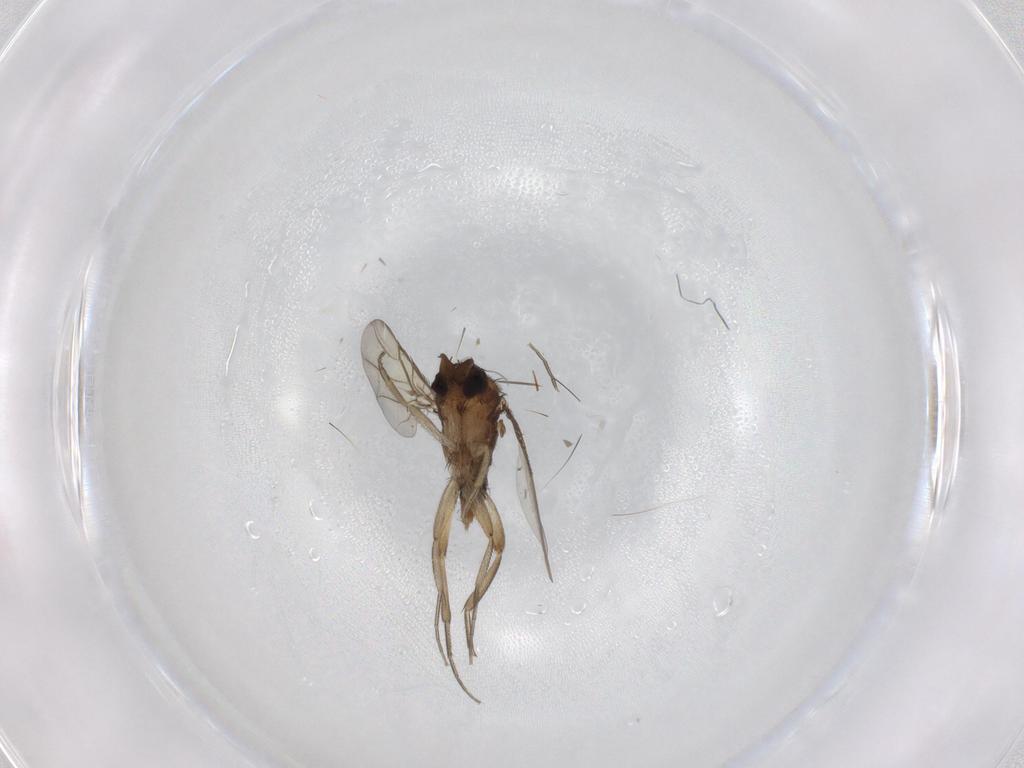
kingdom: Animalia
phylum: Arthropoda
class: Insecta
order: Diptera
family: Phoridae
